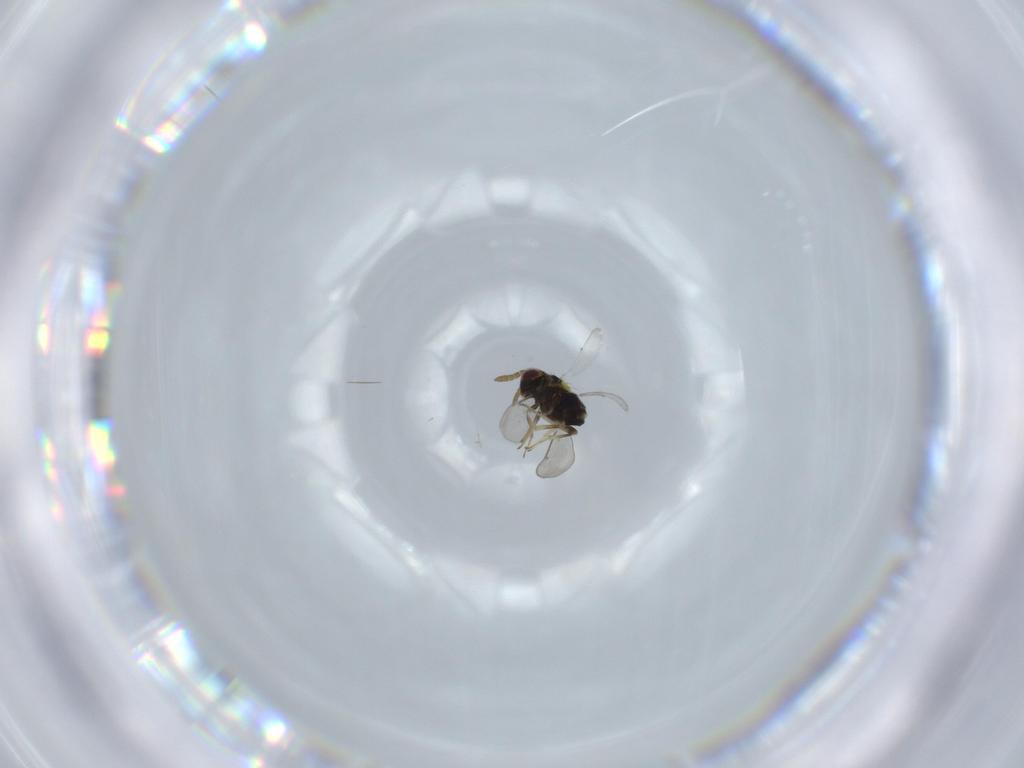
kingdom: Animalia
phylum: Arthropoda
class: Insecta
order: Hymenoptera
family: Aphelinidae
